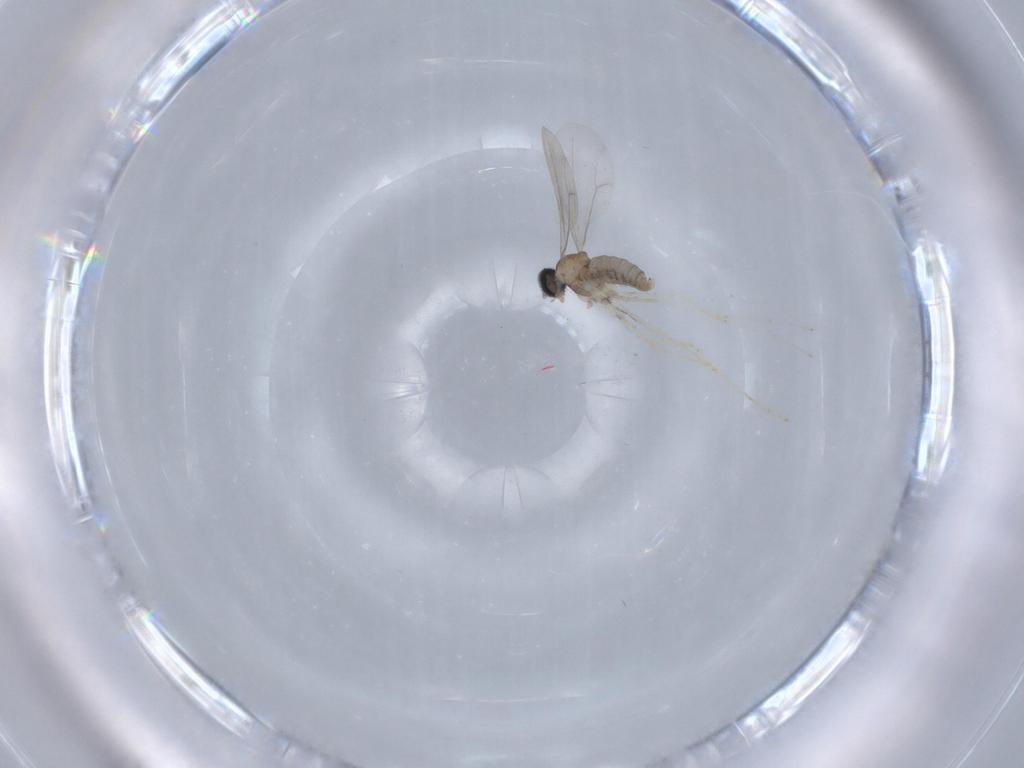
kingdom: Animalia
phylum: Arthropoda
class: Insecta
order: Diptera
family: Cecidomyiidae
